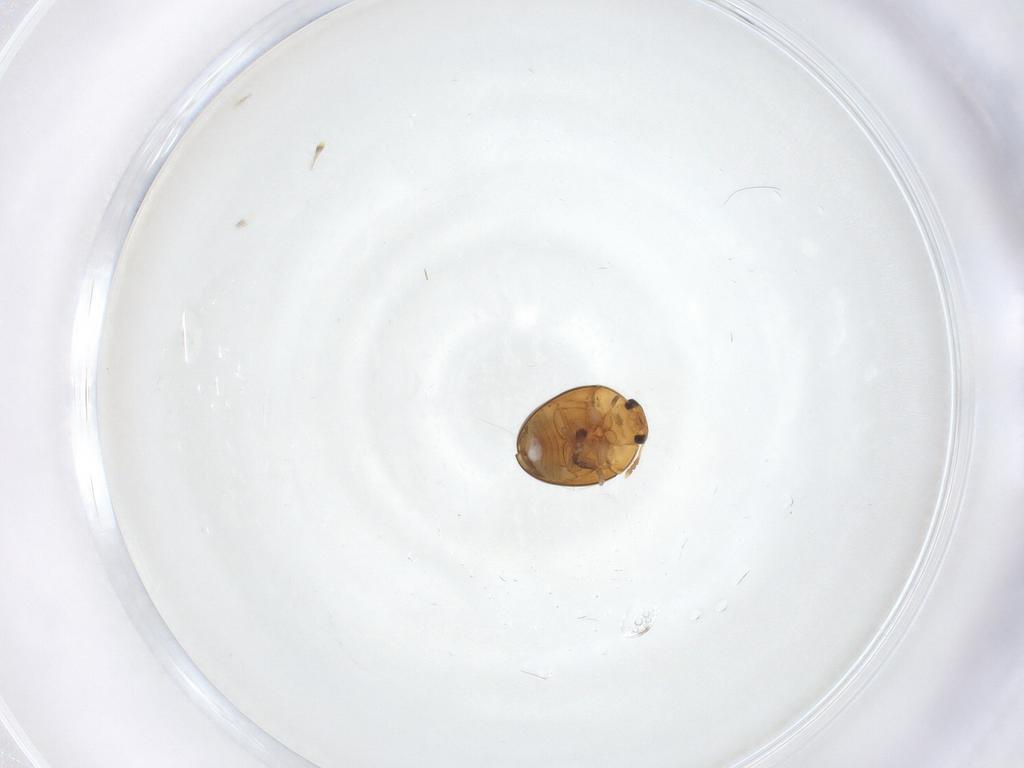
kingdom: Animalia
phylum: Arthropoda
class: Insecta
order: Coleoptera
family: Phalacridae
